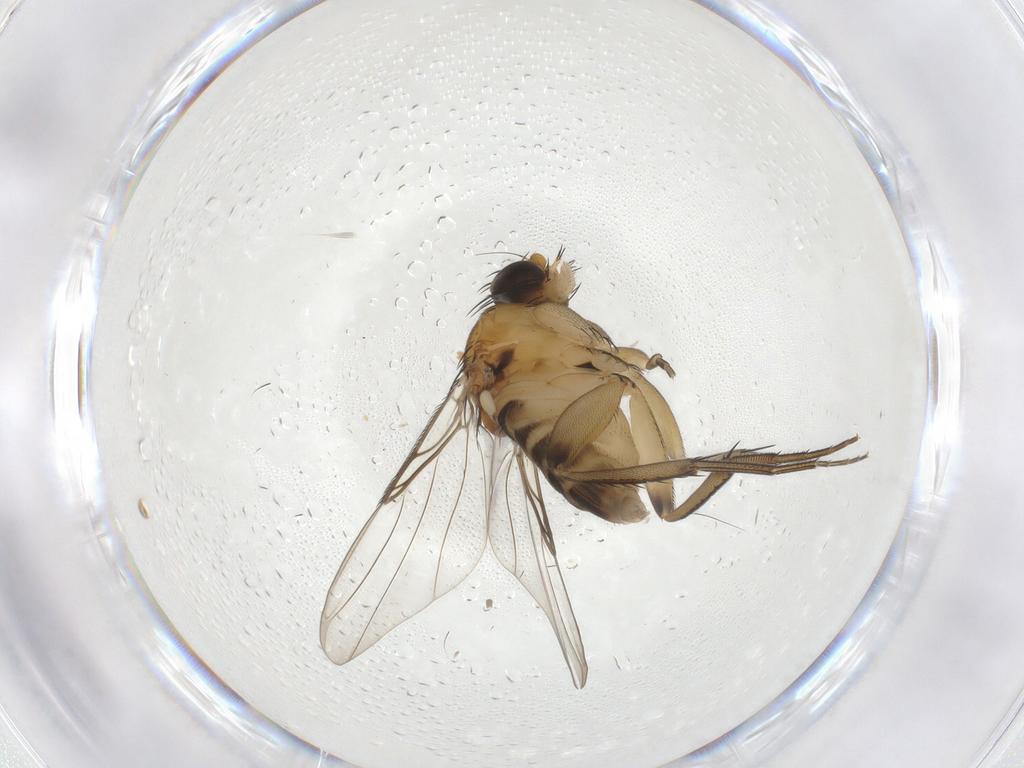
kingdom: Animalia
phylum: Arthropoda
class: Insecta
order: Diptera
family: Phoridae
